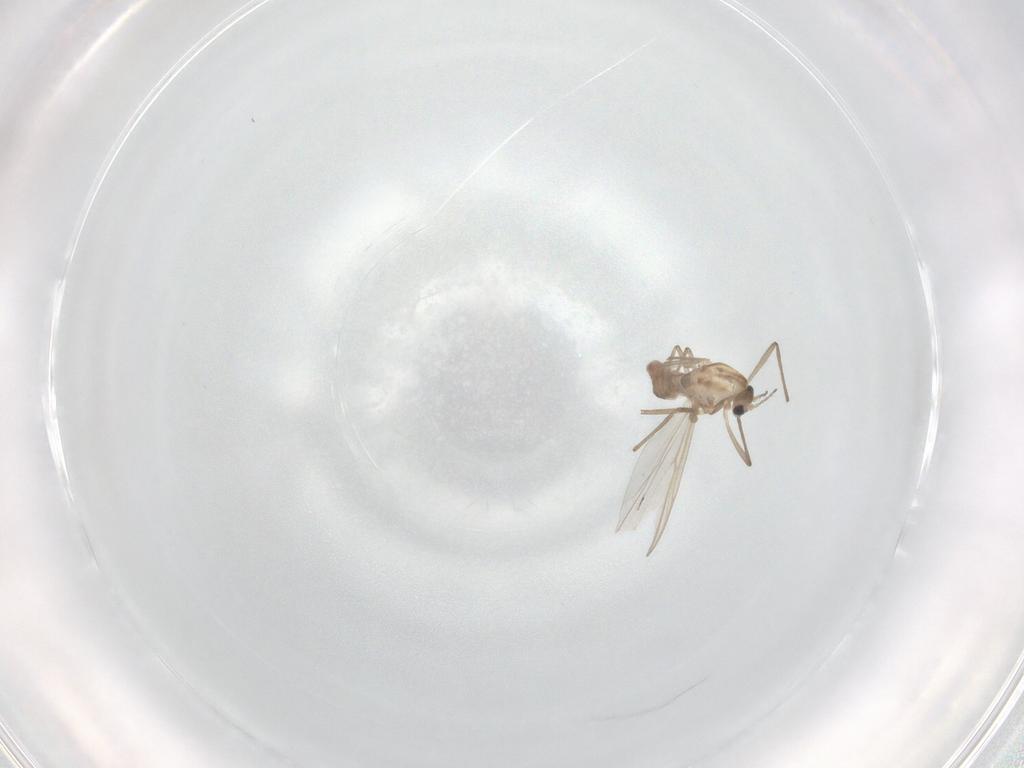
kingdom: Animalia
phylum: Arthropoda
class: Insecta
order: Diptera
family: Chironomidae
